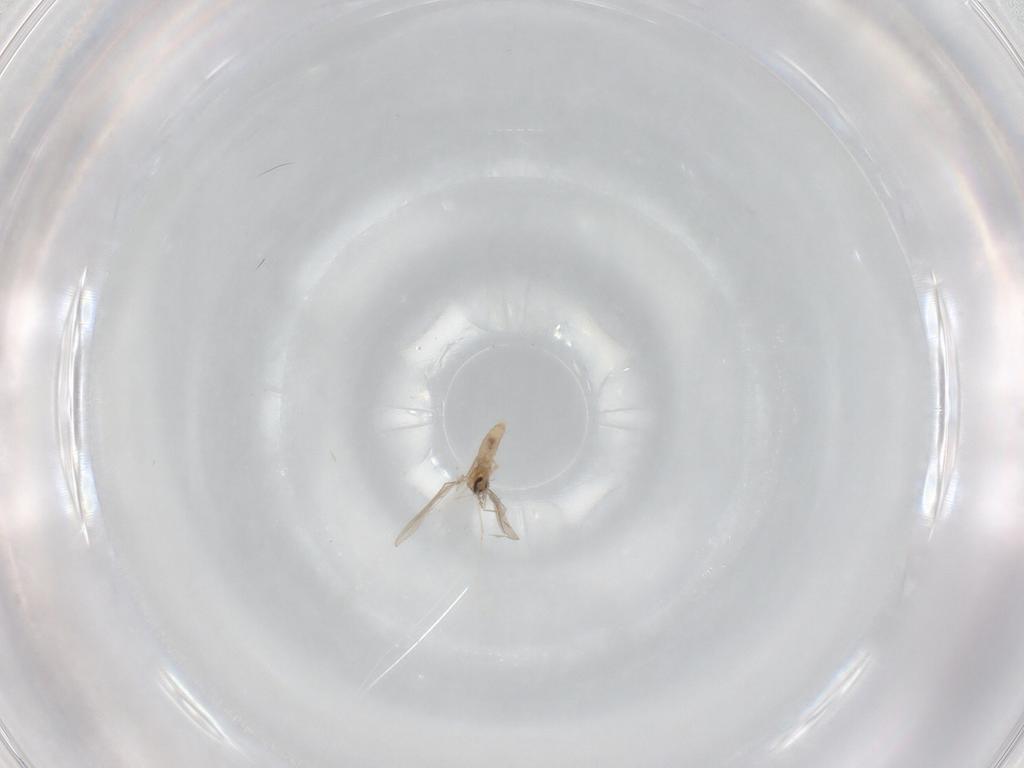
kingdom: Animalia
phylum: Arthropoda
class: Insecta
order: Diptera
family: Cecidomyiidae
